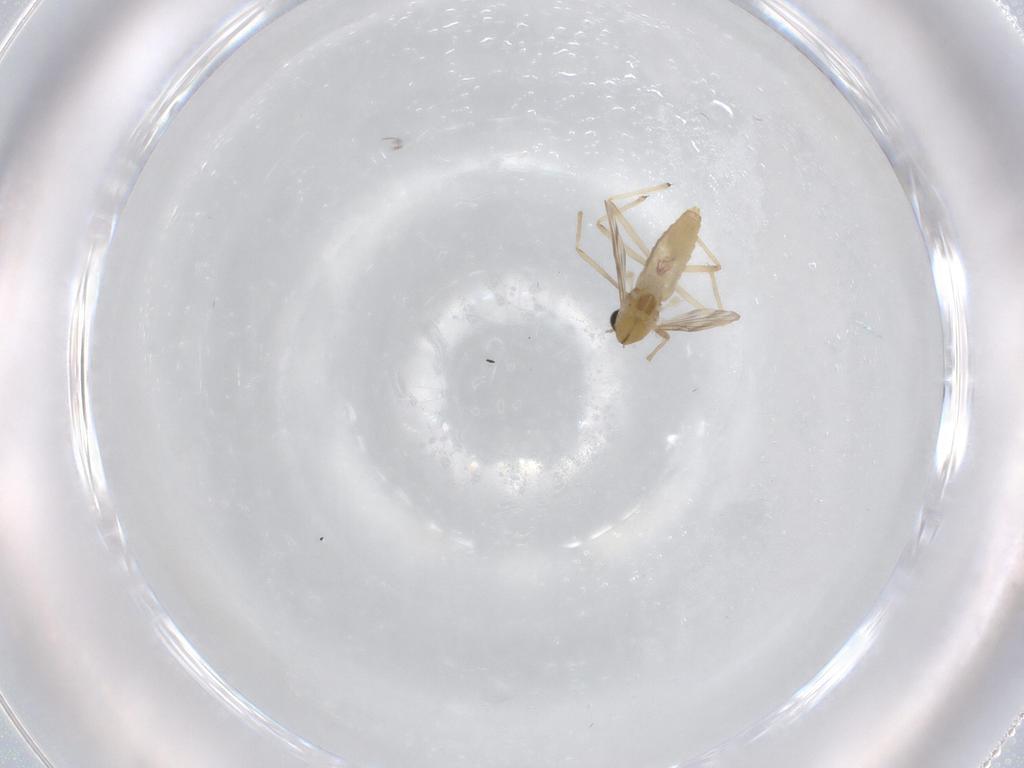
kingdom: Animalia
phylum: Arthropoda
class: Insecta
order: Diptera
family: Chironomidae
